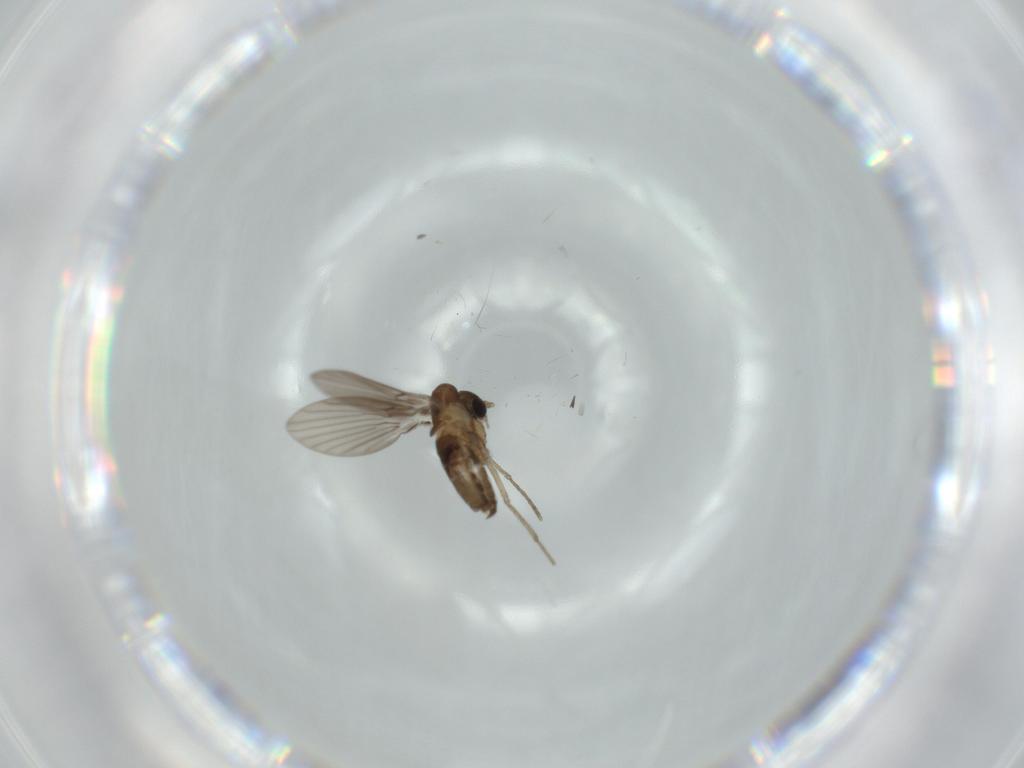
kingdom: Animalia
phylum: Arthropoda
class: Insecta
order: Diptera
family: Psychodidae
